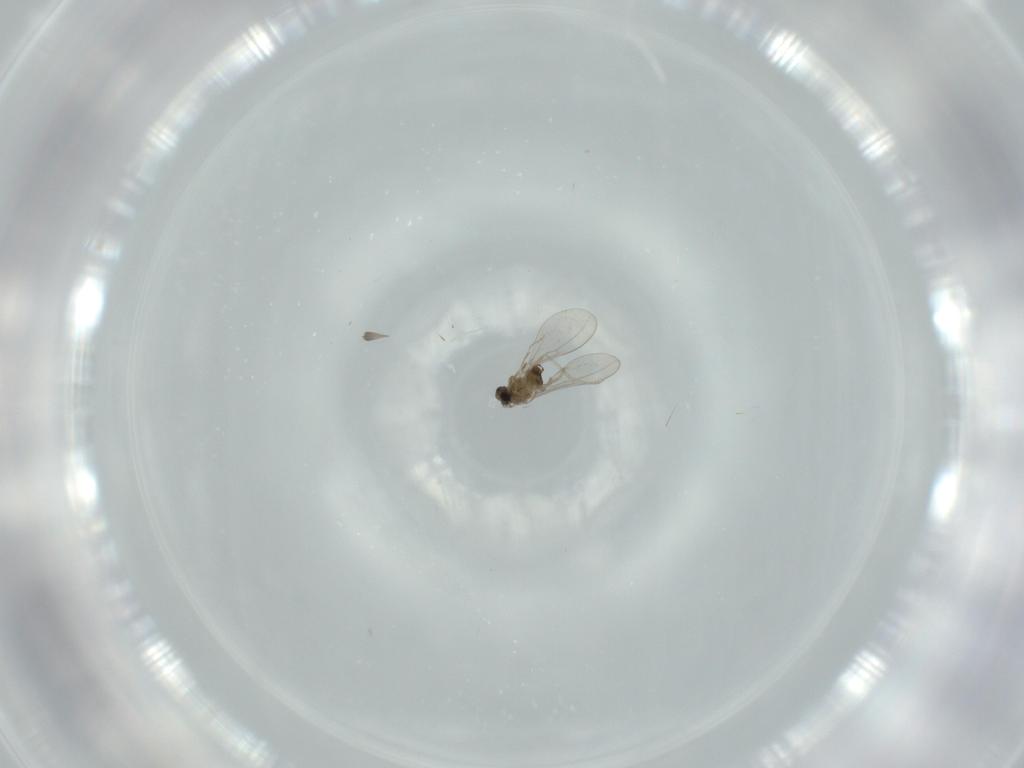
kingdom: Animalia
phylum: Arthropoda
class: Insecta
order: Diptera
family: Cecidomyiidae
